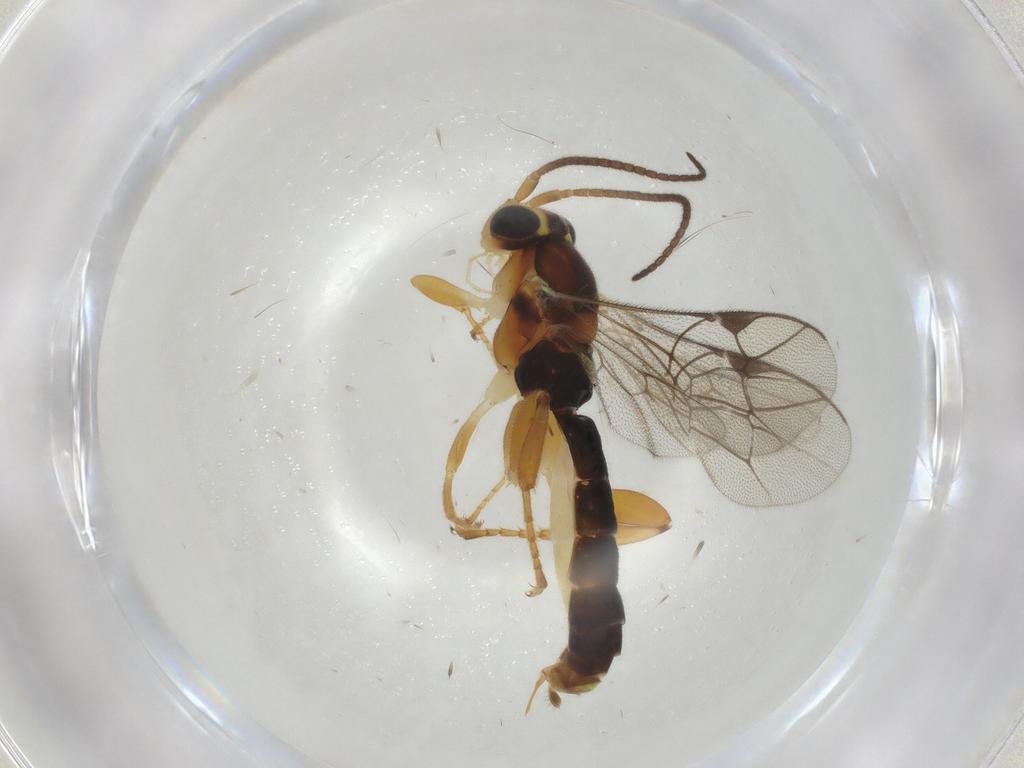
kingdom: Animalia
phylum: Arthropoda
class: Insecta
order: Hymenoptera
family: Ichneumonidae
